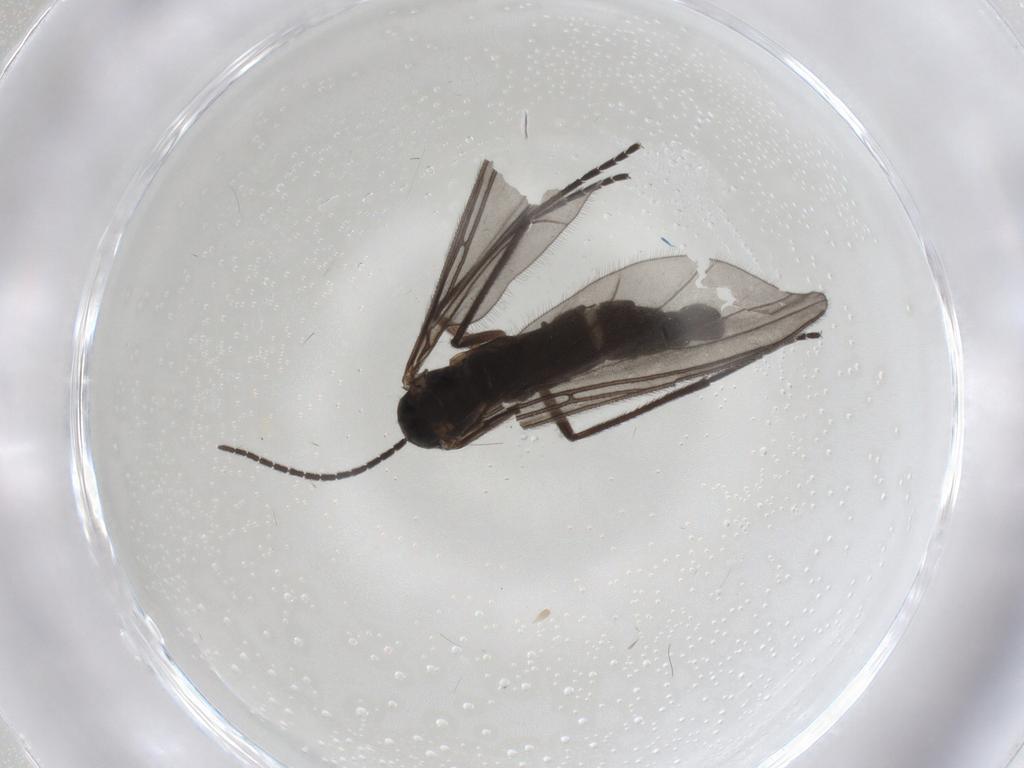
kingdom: Animalia
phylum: Arthropoda
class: Insecta
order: Diptera
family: Sciaridae
